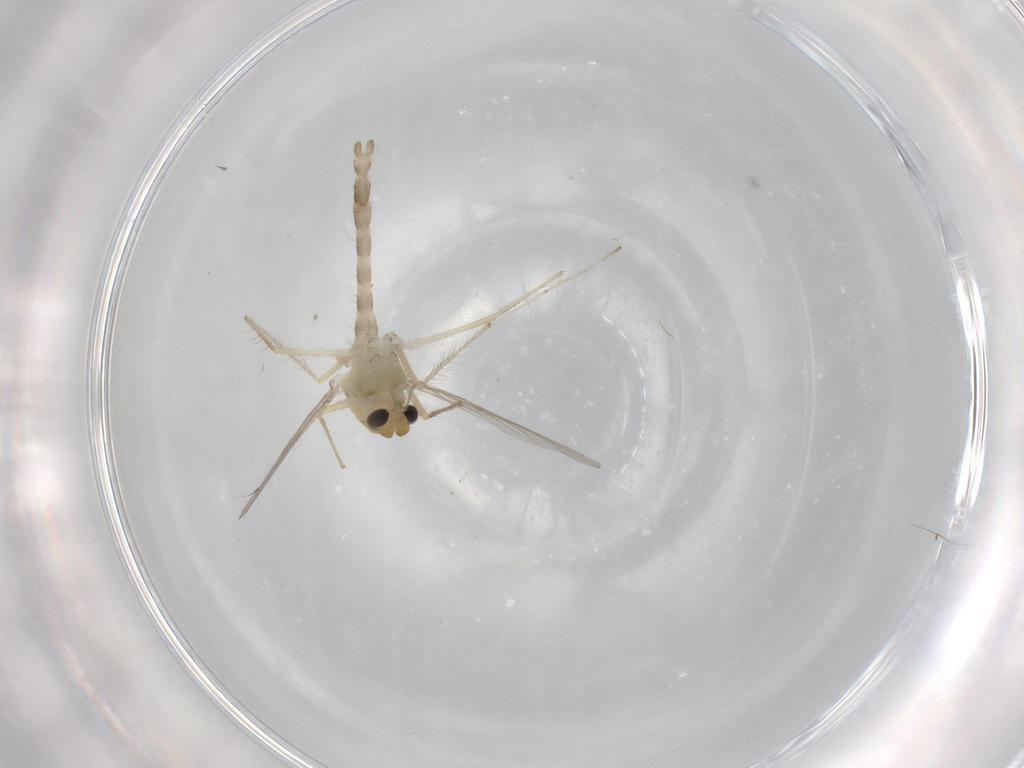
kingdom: Animalia
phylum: Arthropoda
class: Insecta
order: Diptera
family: Chironomidae
